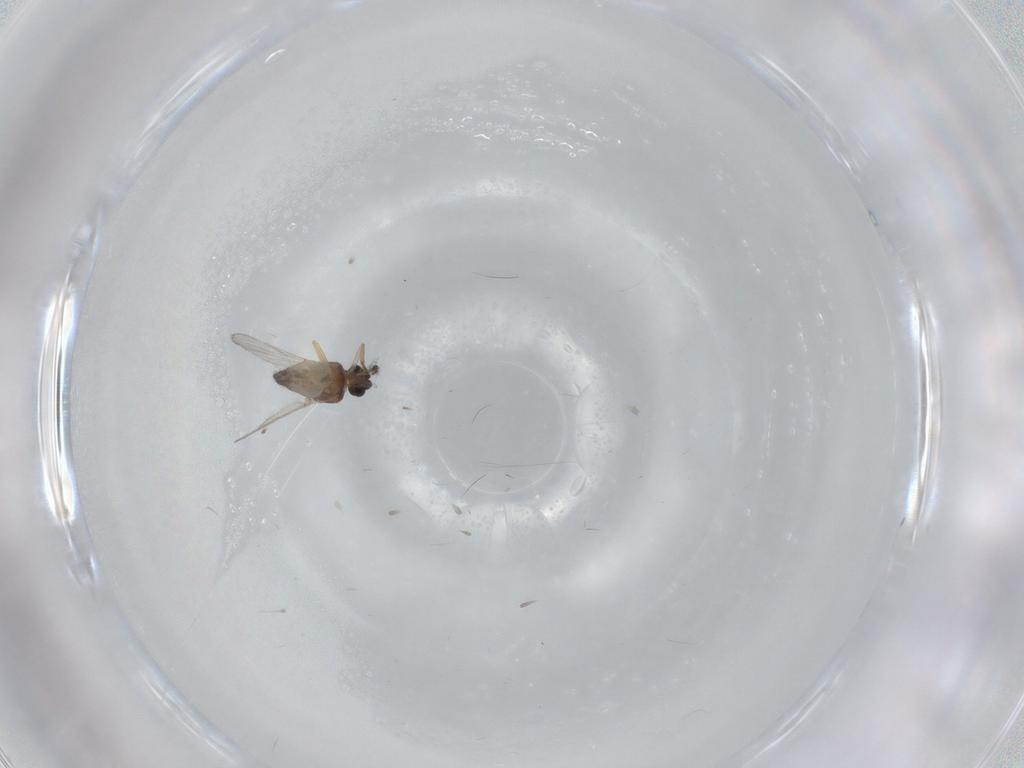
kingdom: Animalia
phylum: Arthropoda
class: Insecta
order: Diptera
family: Ceratopogonidae
